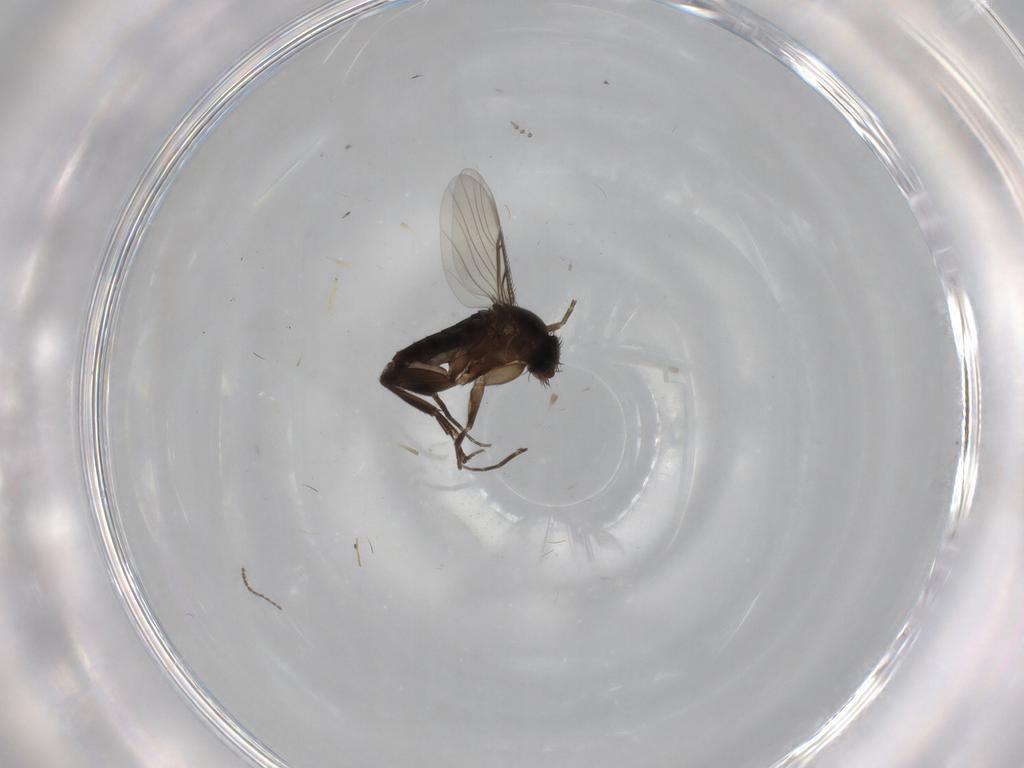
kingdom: Animalia
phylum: Arthropoda
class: Insecta
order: Diptera
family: Phoridae
